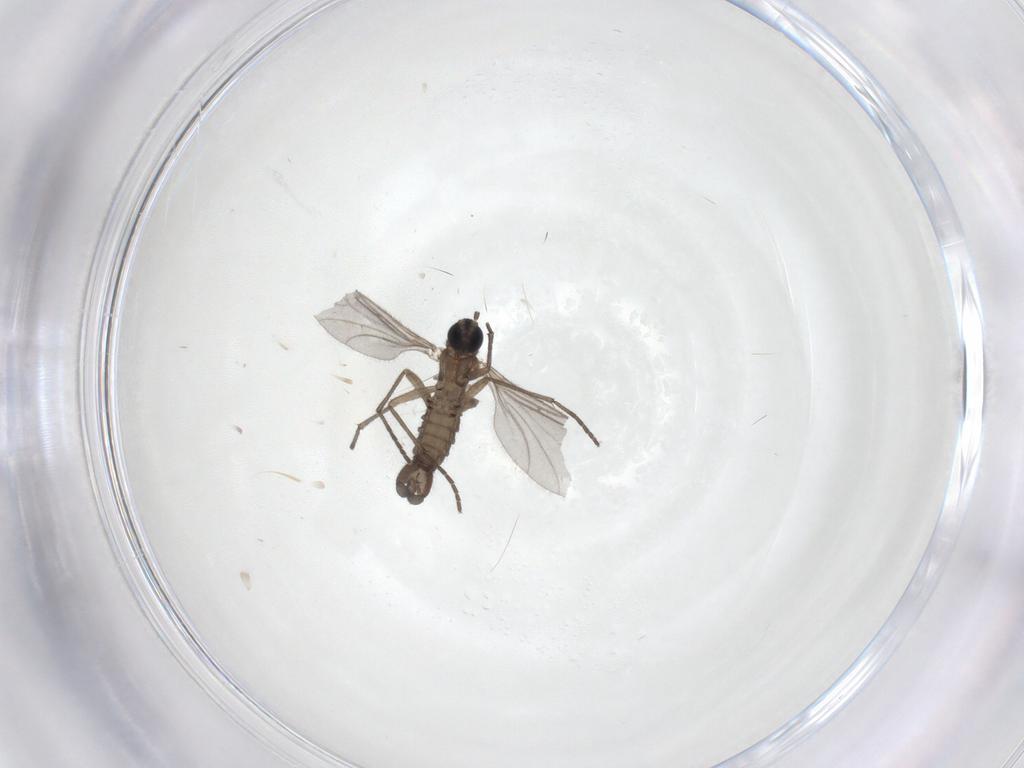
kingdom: Animalia
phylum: Arthropoda
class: Insecta
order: Diptera
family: Sciaridae
